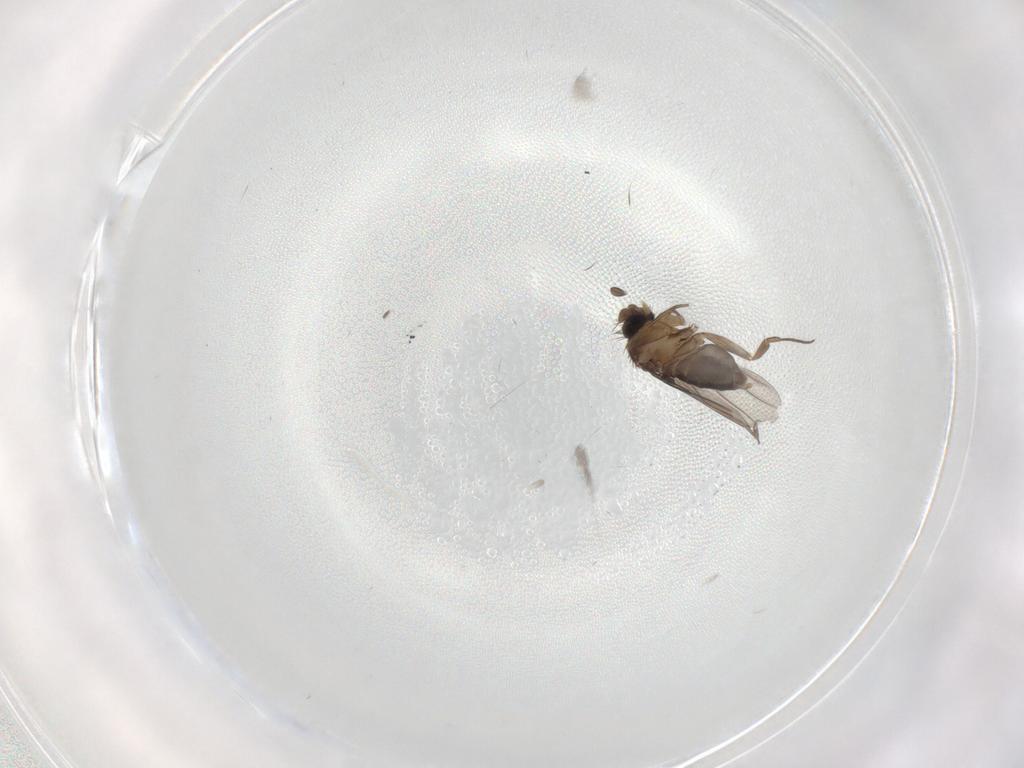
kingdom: Animalia
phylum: Arthropoda
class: Insecta
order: Diptera
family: Phoridae
